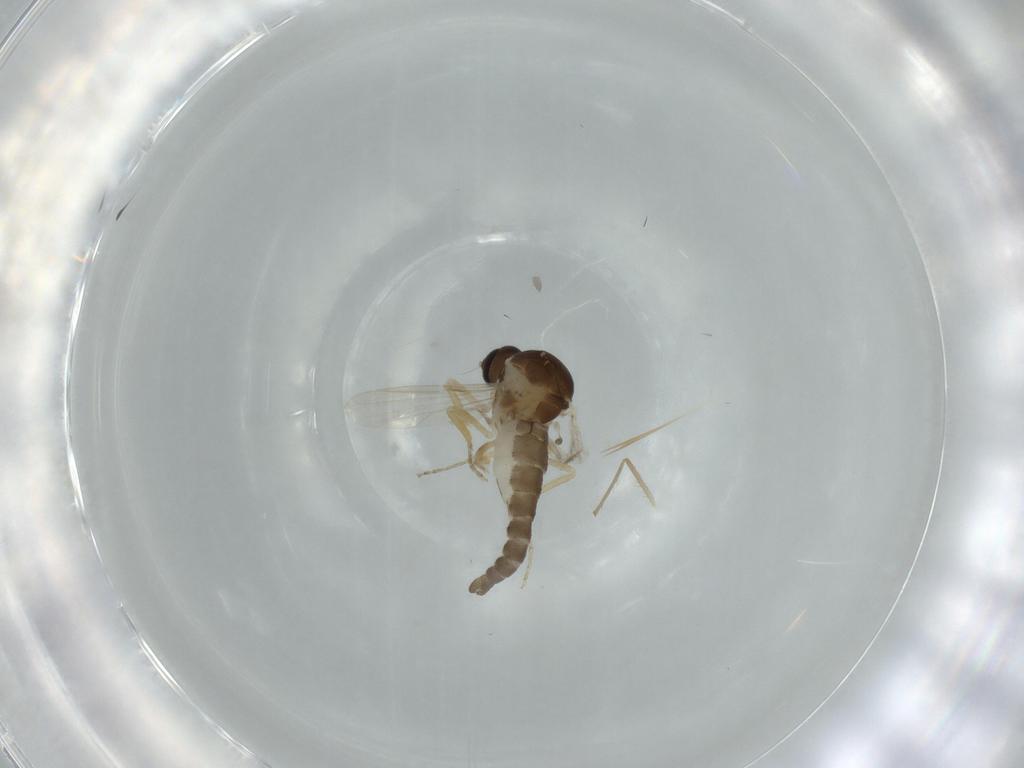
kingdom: Animalia
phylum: Arthropoda
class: Insecta
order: Diptera
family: Ceratopogonidae
